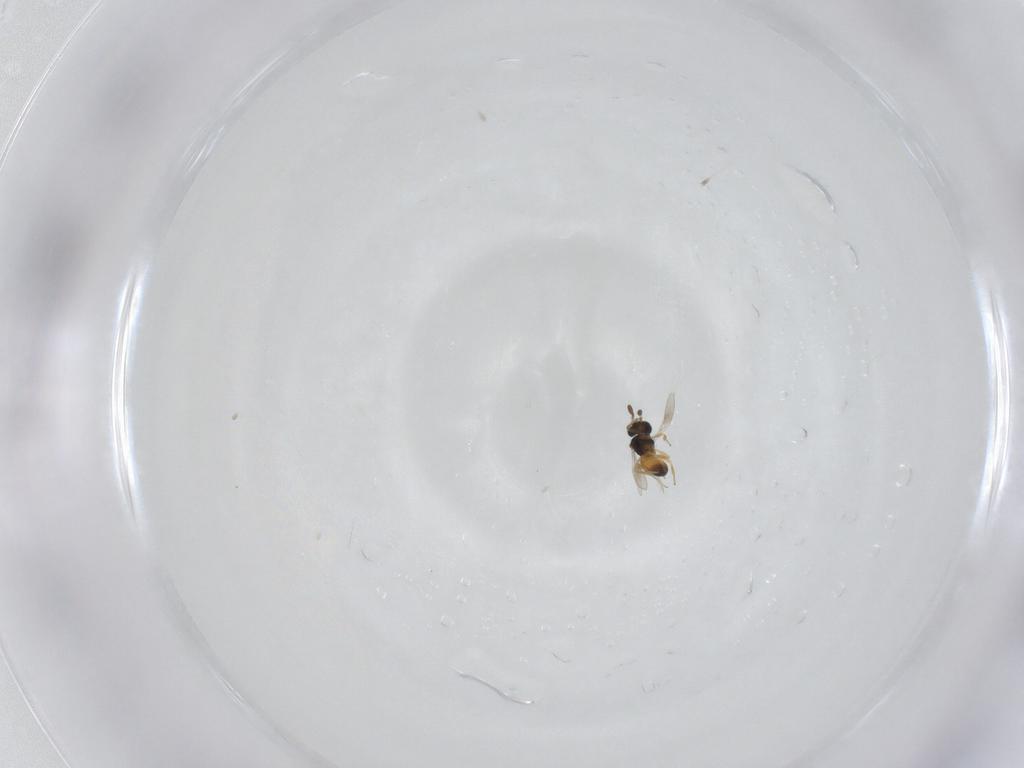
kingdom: Animalia
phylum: Arthropoda
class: Insecta
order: Hymenoptera
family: Scelionidae
